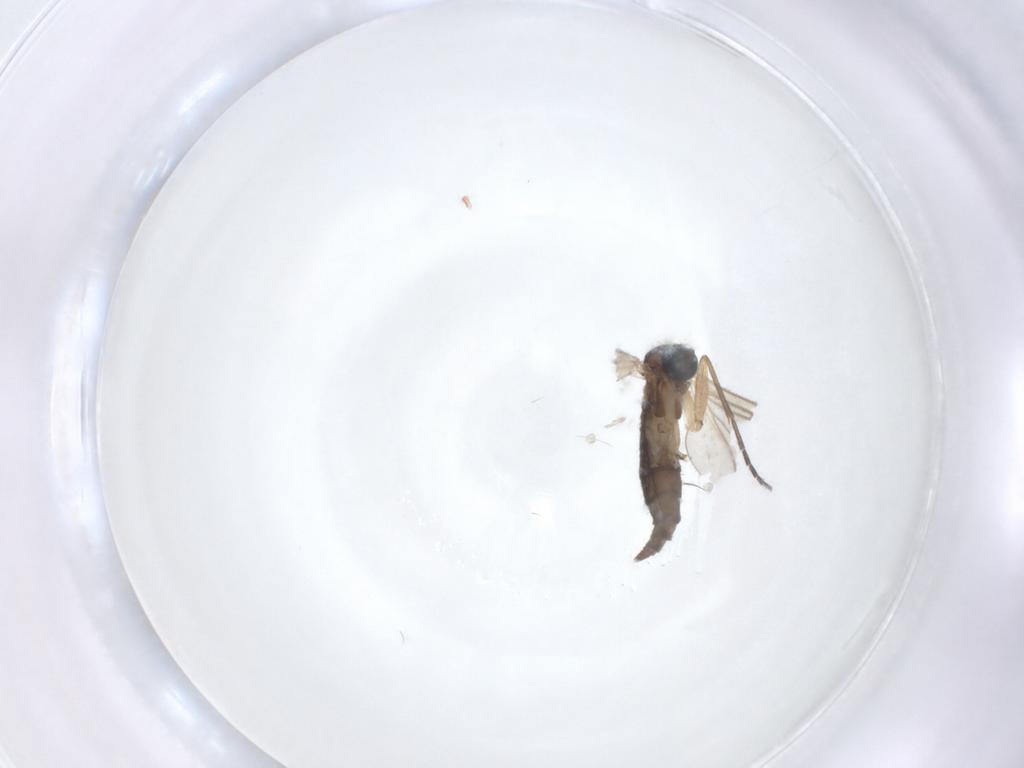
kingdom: Animalia
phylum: Arthropoda
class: Insecta
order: Diptera
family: Sciaridae
